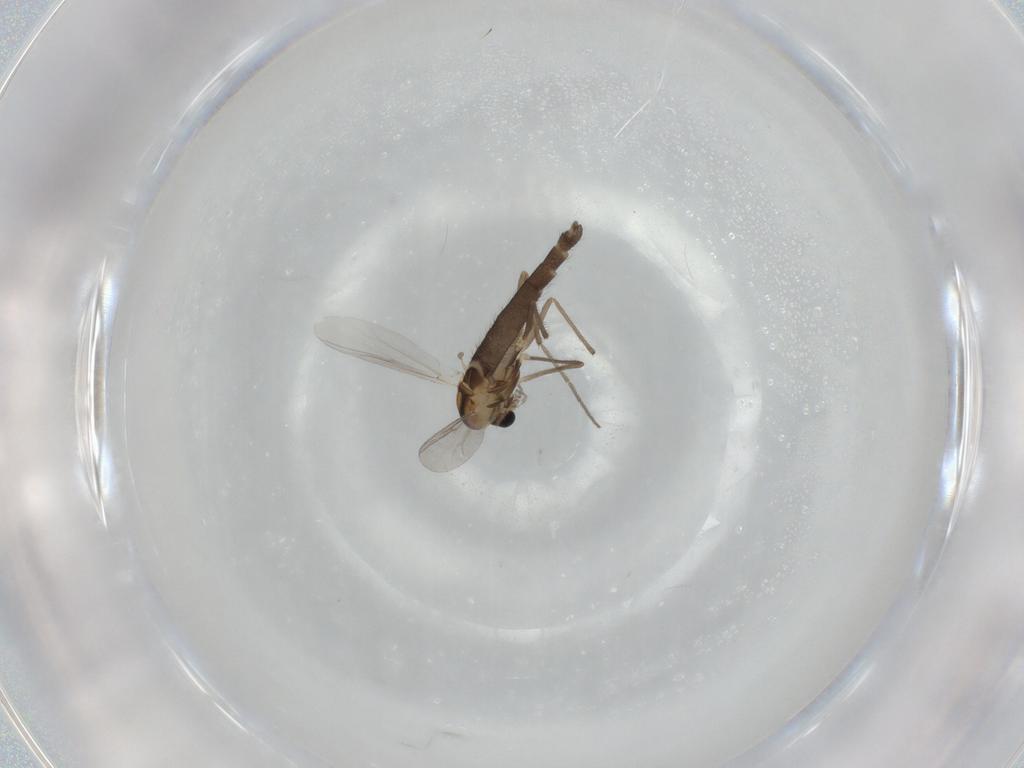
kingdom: Animalia
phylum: Arthropoda
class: Insecta
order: Diptera
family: Chironomidae
